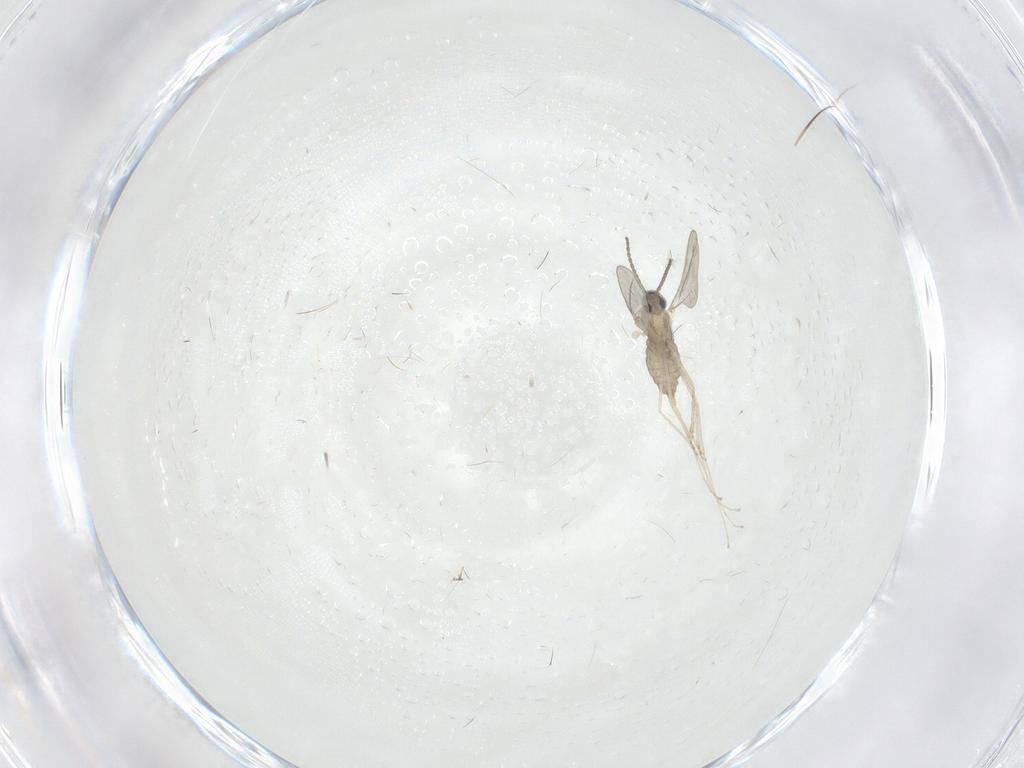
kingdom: Animalia
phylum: Arthropoda
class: Insecta
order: Diptera
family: Cecidomyiidae
